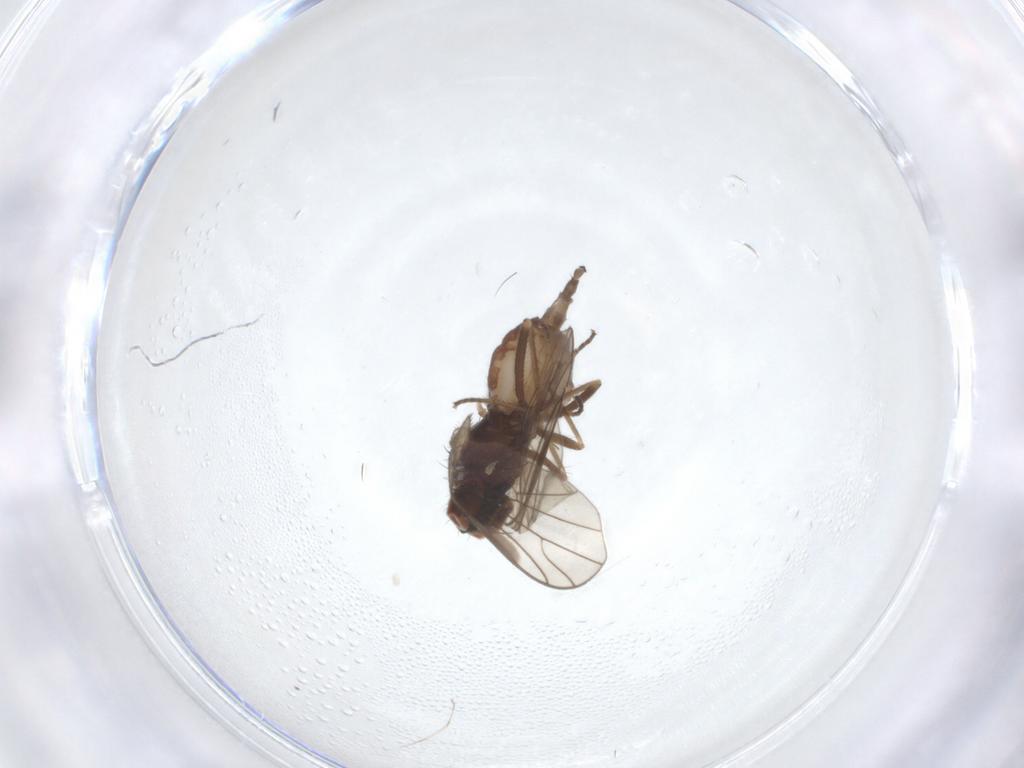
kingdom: Animalia
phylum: Arthropoda
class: Insecta
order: Diptera
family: Empididae
